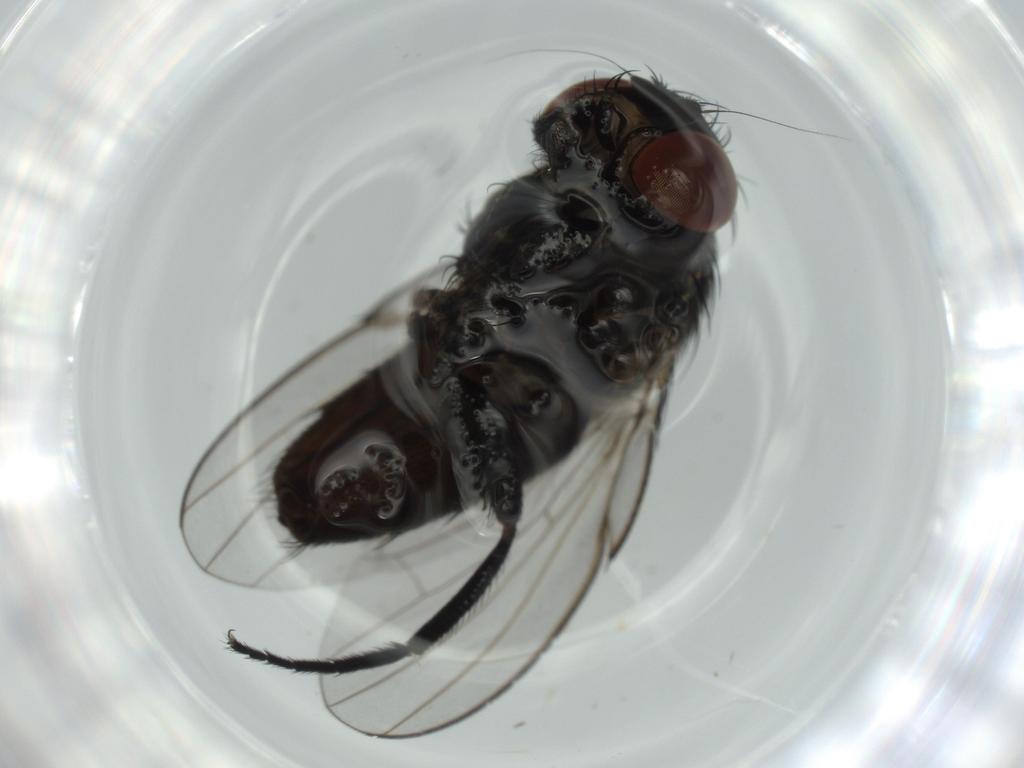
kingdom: Animalia
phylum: Arthropoda
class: Insecta
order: Diptera
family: Milichiidae
